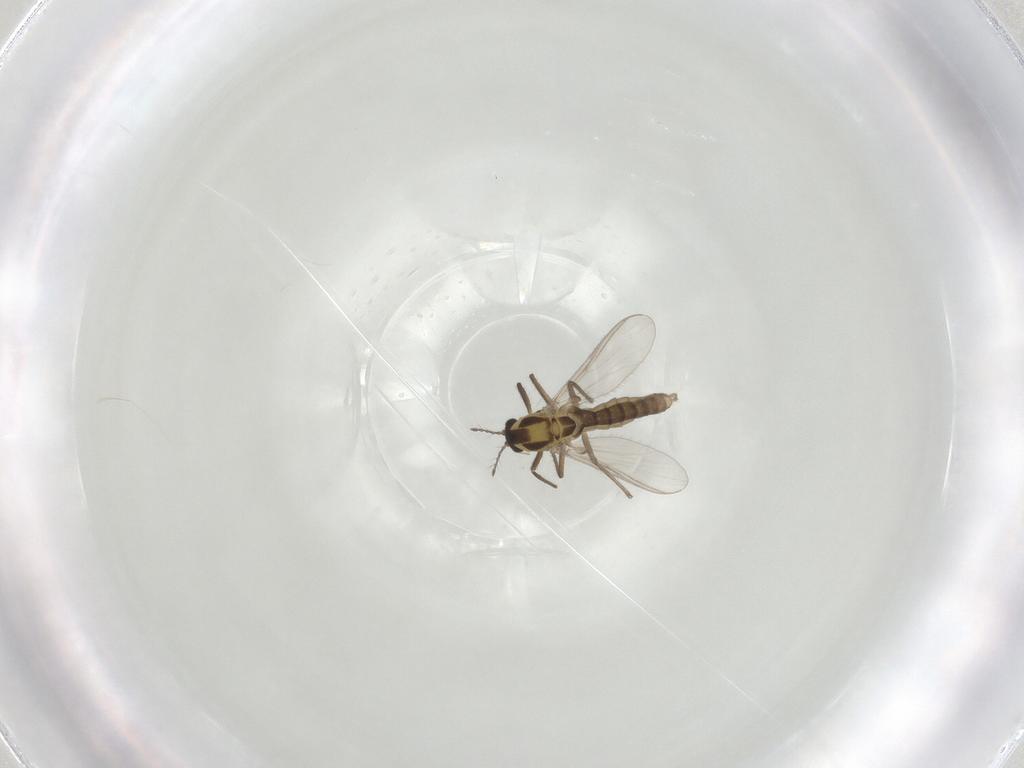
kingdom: Animalia
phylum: Arthropoda
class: Insecta
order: Diptera
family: Chironomidae
